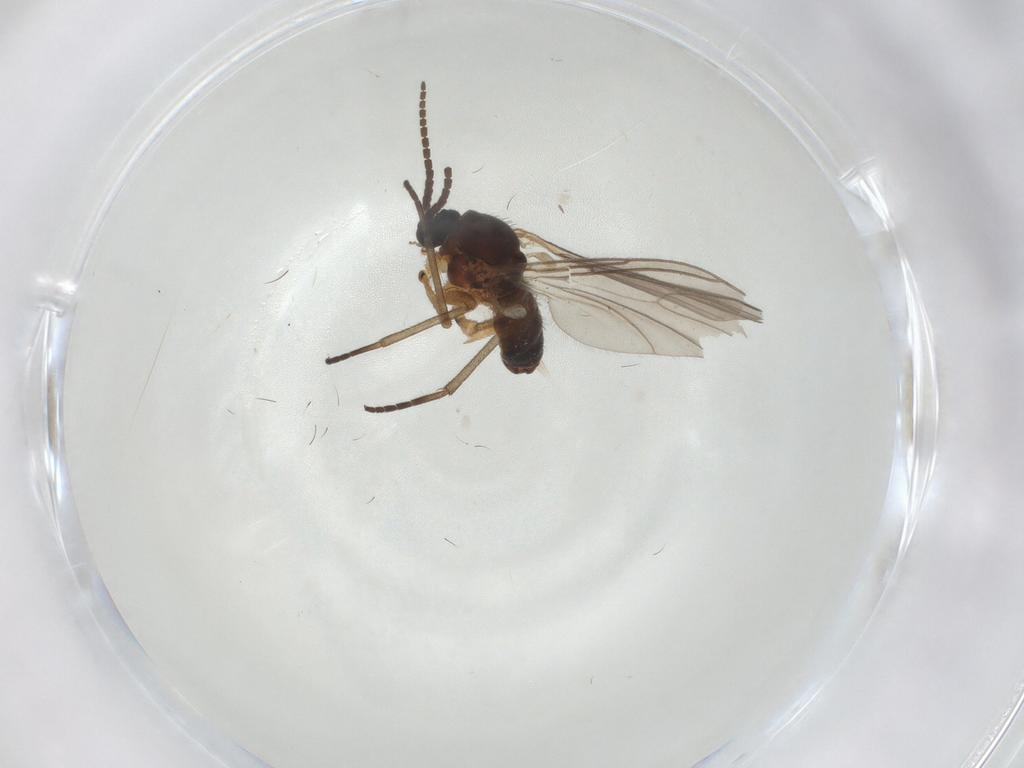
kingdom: Animalia
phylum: Arthropoda
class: Insecta
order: Diptera
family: Sciaridae
